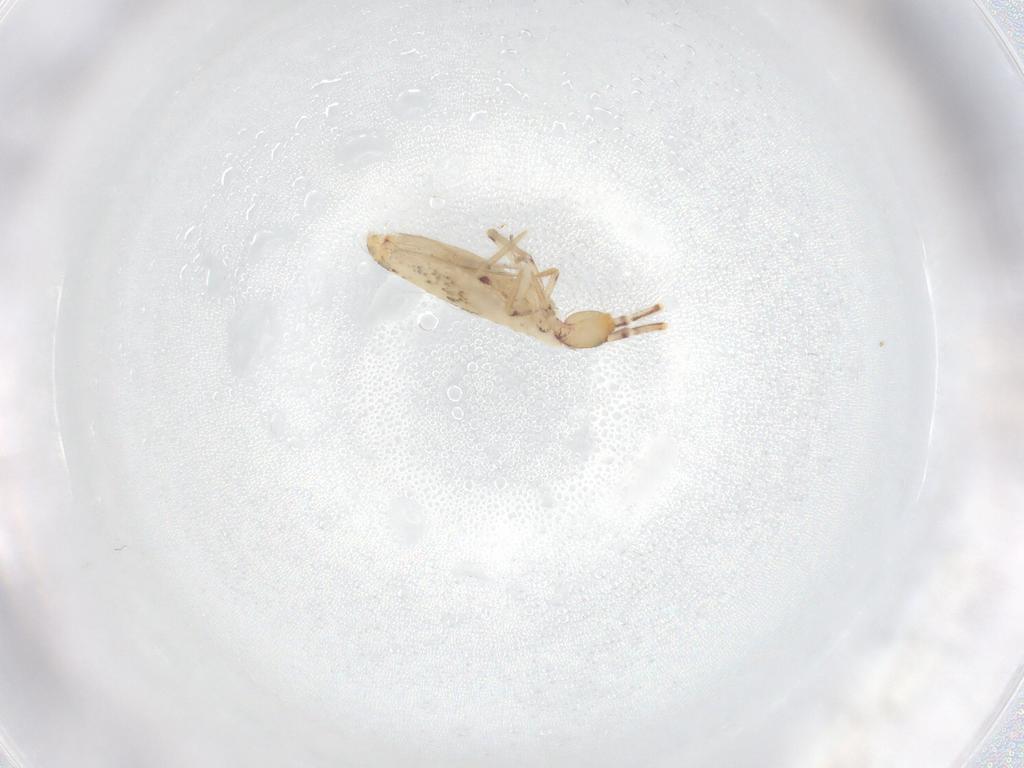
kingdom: Animalia
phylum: Arthropoda
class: Collembola
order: Entomobryomorpha
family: Entomobryidae
